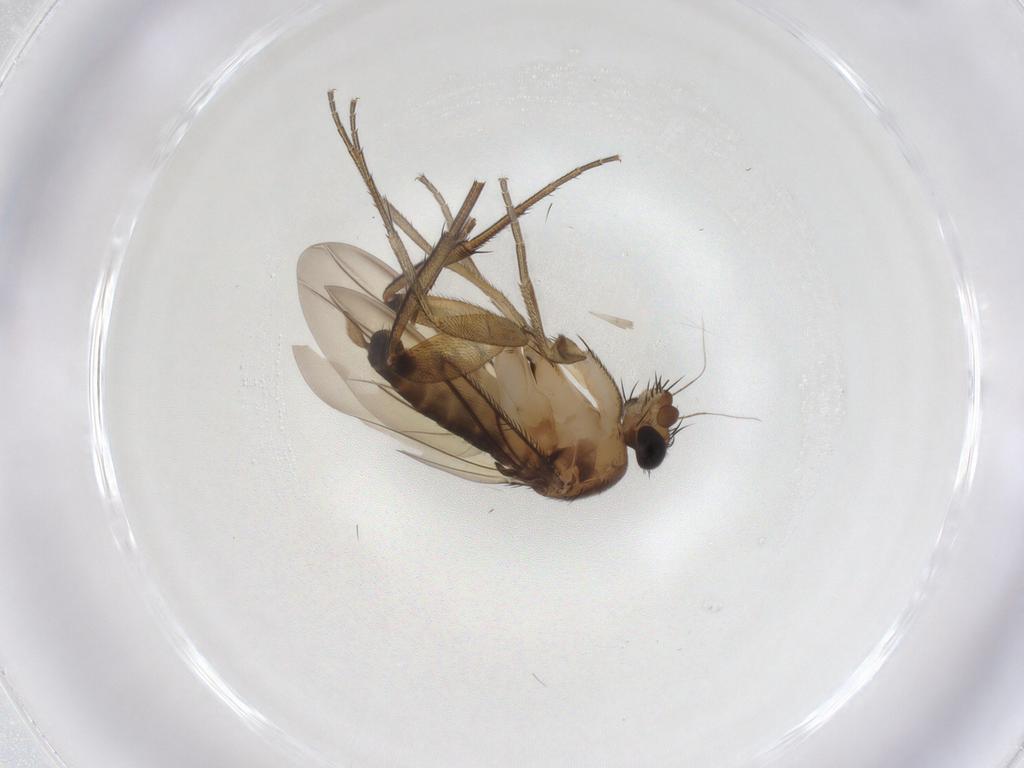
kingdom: Animalia
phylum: Arthropoda
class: Insecta
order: Diptera
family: Phoridae
